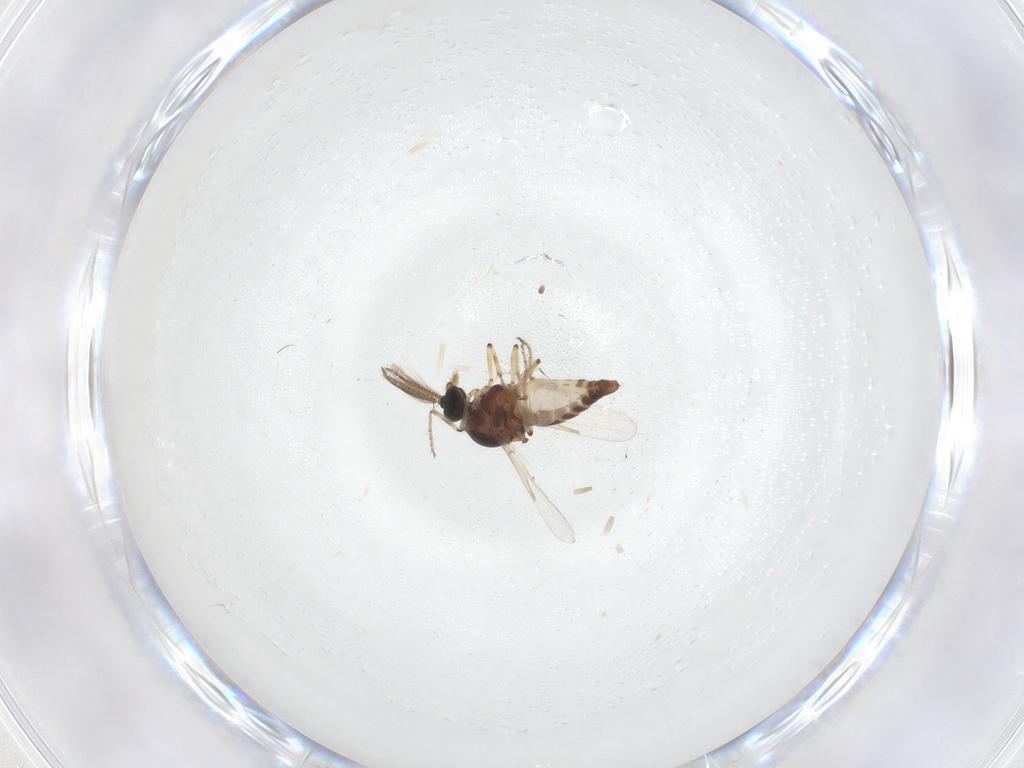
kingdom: Animalia
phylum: Arthropoda
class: Insecta
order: Diptera
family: Ceratopogonidae
